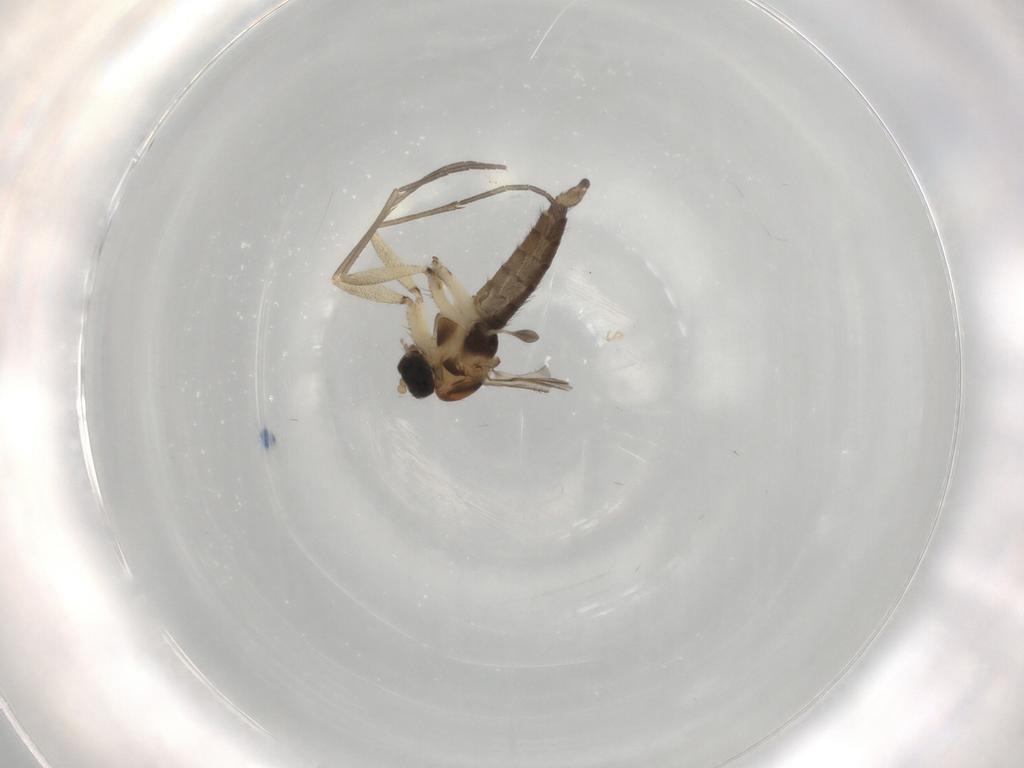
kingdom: Animalia
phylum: Arthropoda
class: Insecta
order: Diptera
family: Sciaridae
